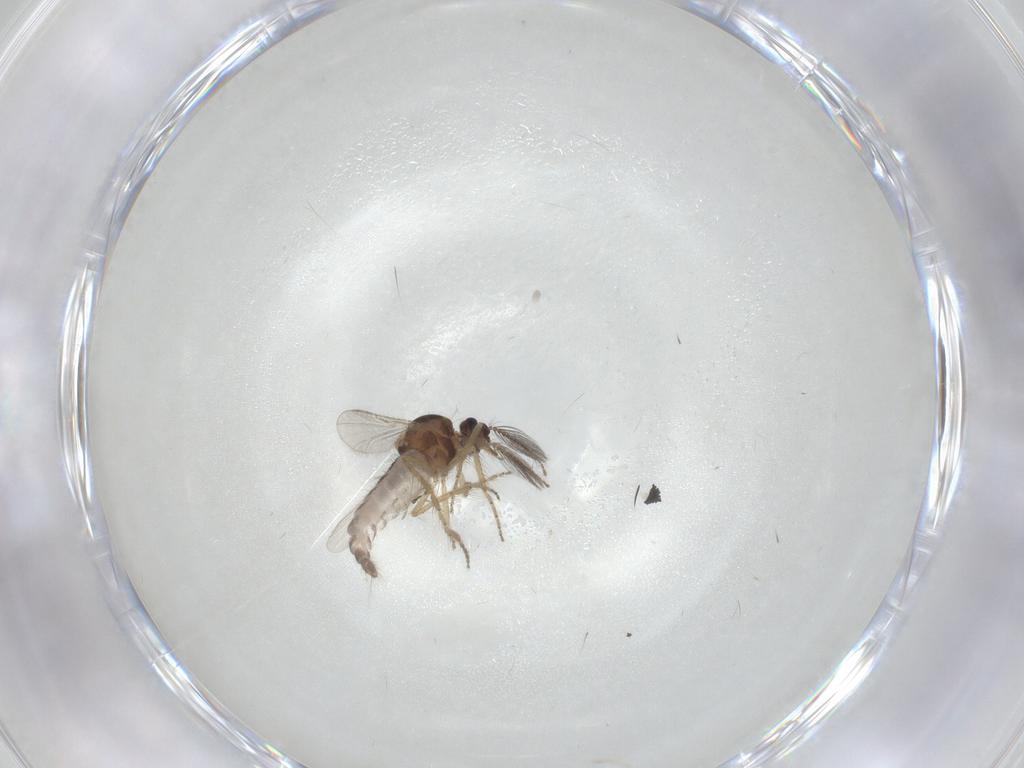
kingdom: Animalia
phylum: Arthropoda
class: Insecta
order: Diptera
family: Ceratopogonidae
